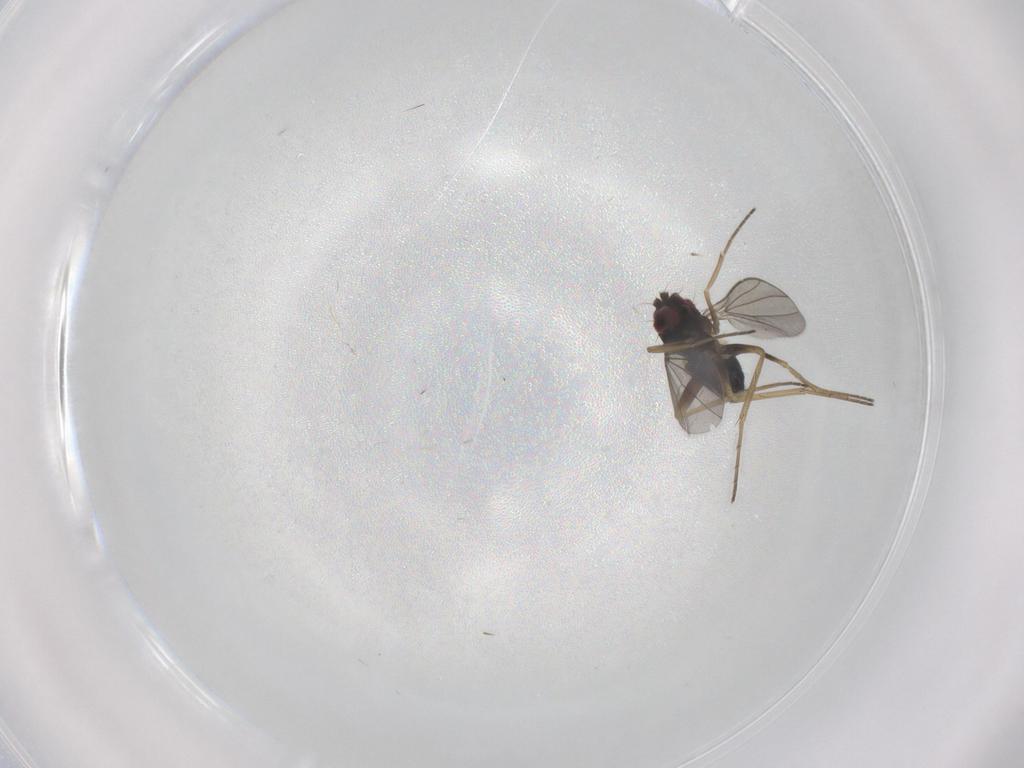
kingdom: Animalia
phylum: Arthropoda
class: Insecta
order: Diptera
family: Dolichopodidae
